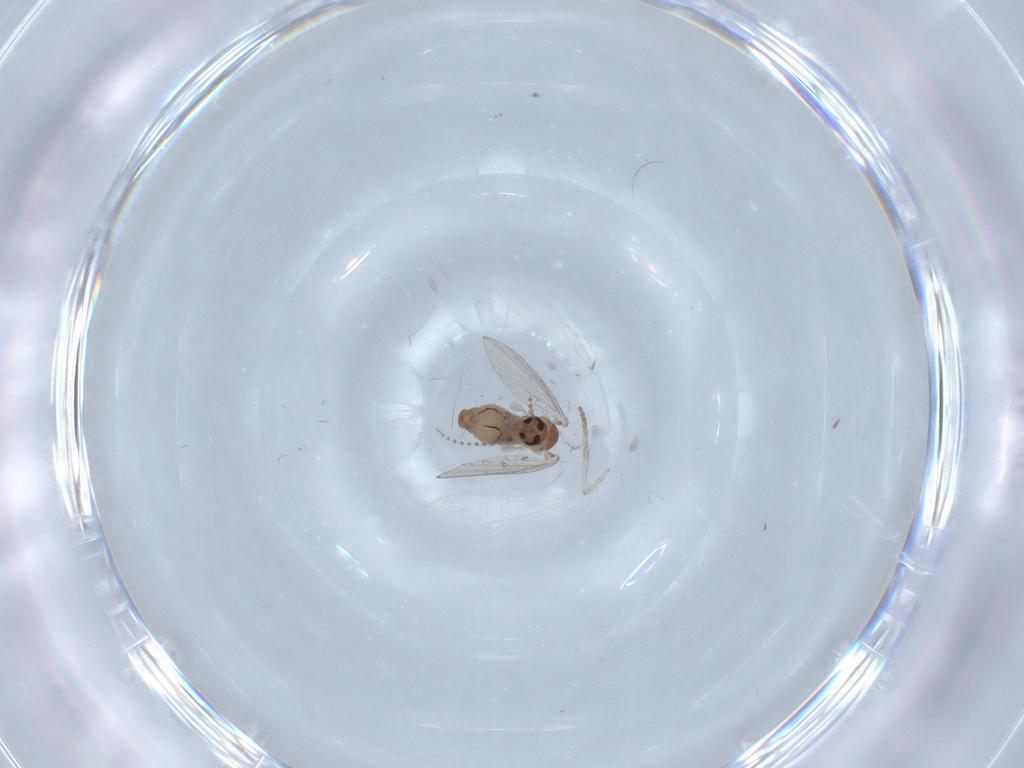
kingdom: Animalia
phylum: Arthropoda
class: Insecta
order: Diptera
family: Psychodidae
